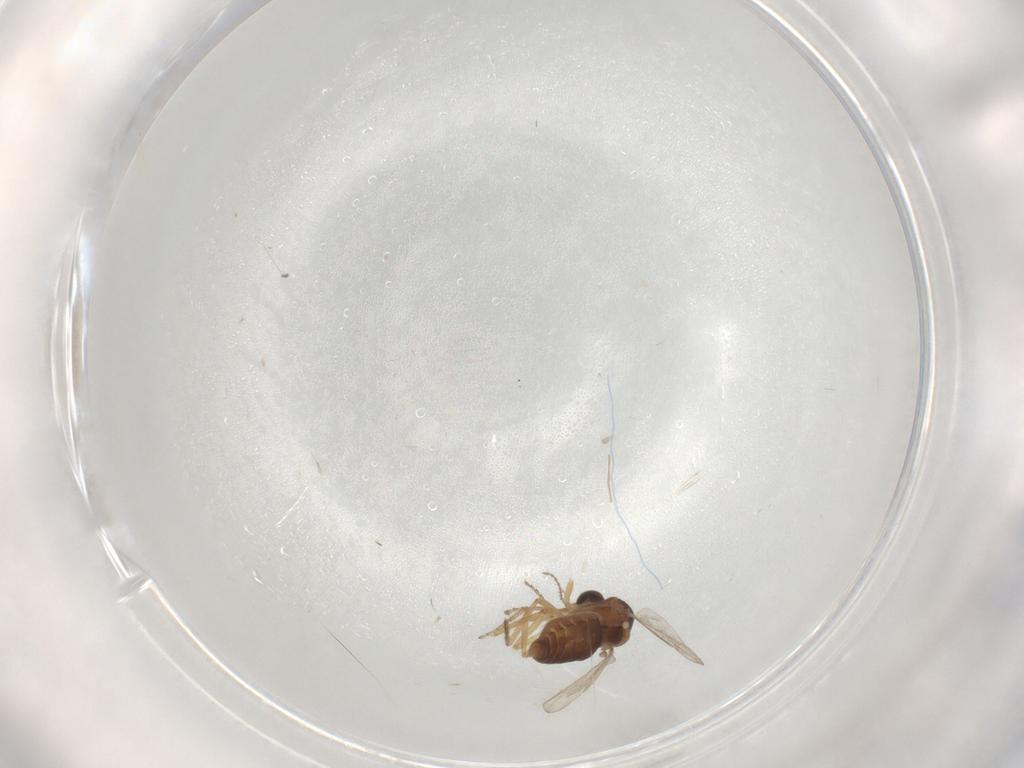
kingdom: Animalia
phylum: Arthropoda
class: Insecta
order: Diptera
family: Ceratopogonidae
